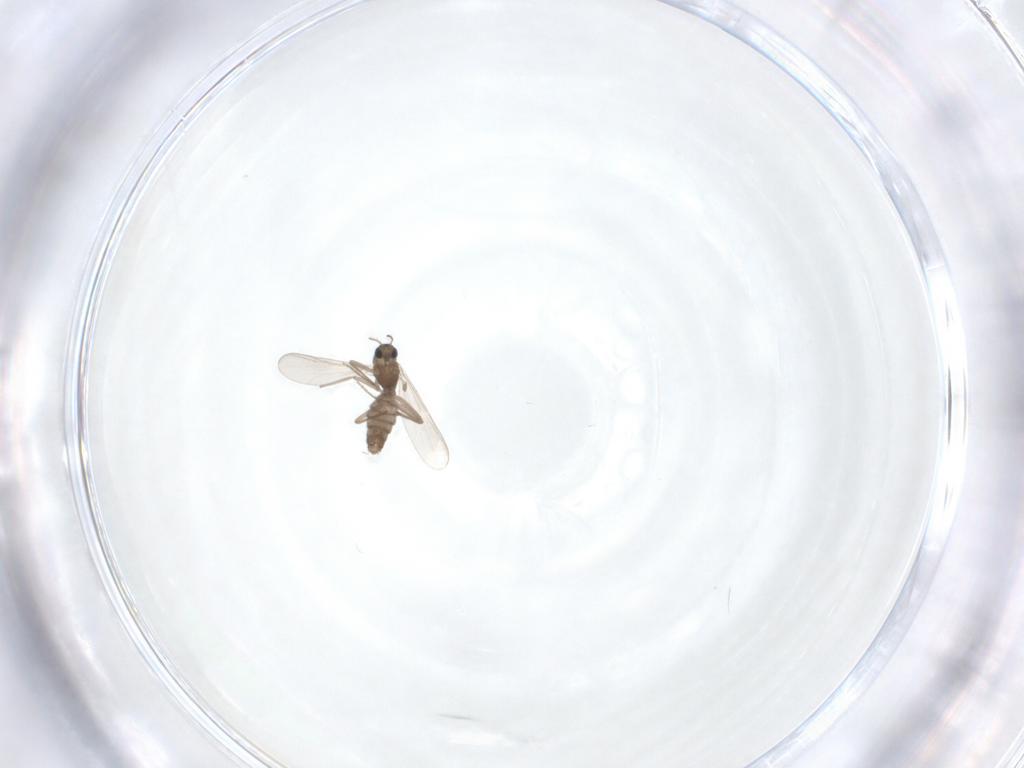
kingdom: Animalia
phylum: Arthropoda
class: Insecta
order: Diptera
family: Chironomidae
